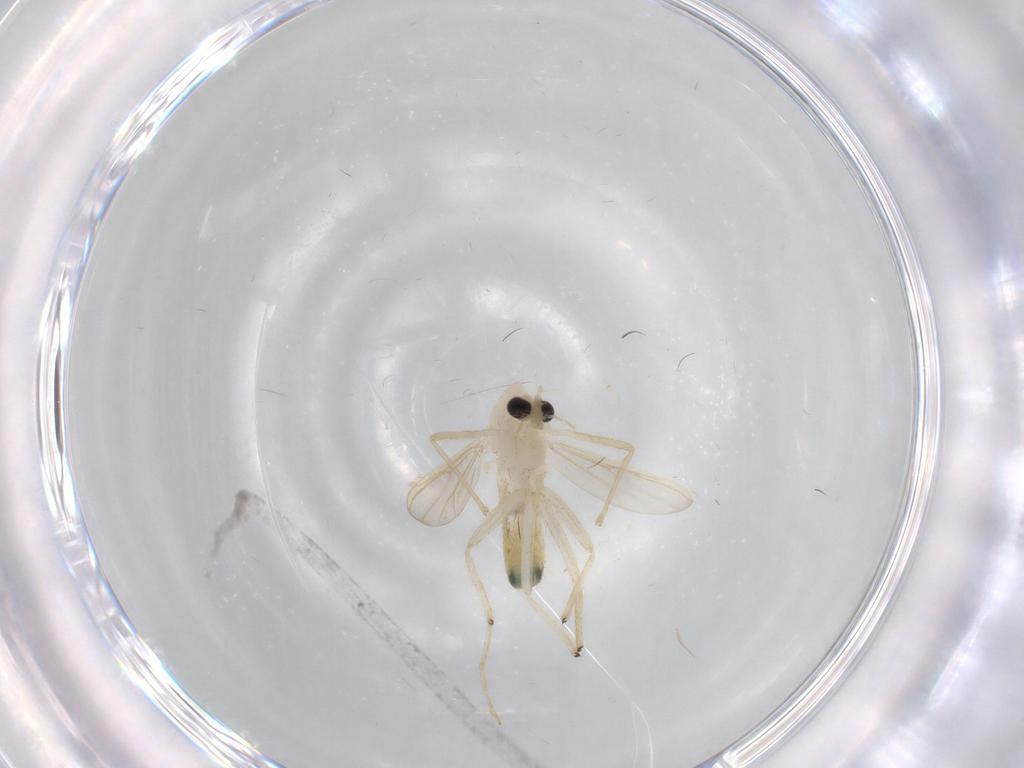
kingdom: Animalia
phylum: Arthropoda
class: Insecta
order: Diptera
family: Chironomidae
